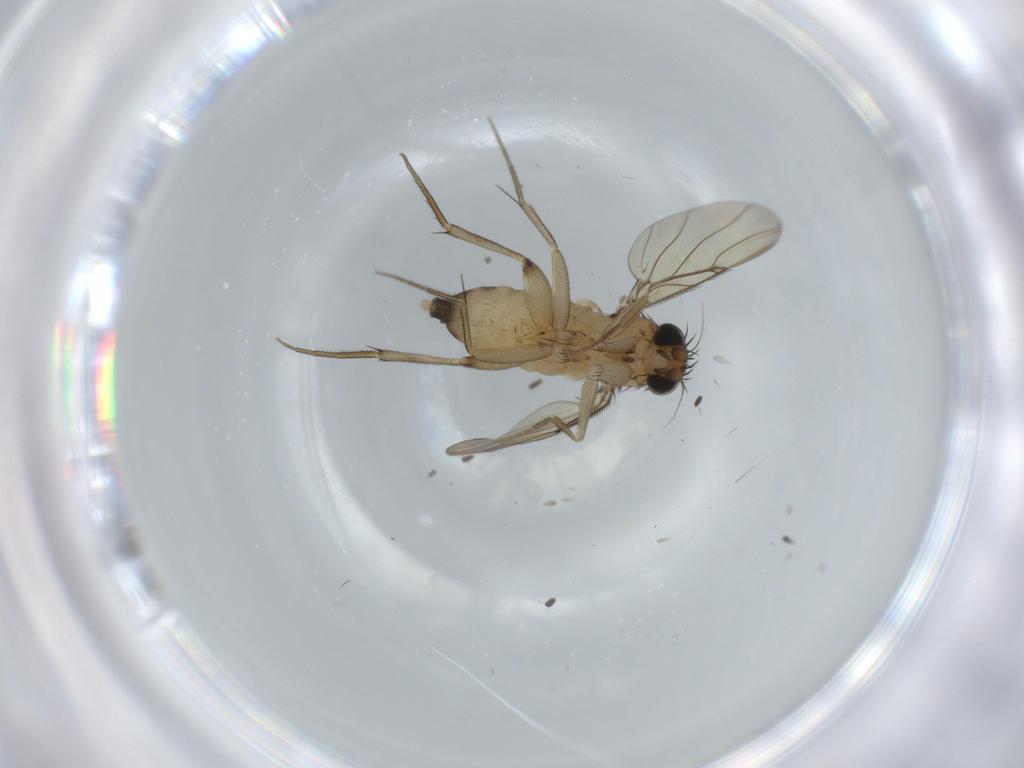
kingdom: Animalia
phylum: Arthropoda
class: Insecta
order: Diptera
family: Phoridae
